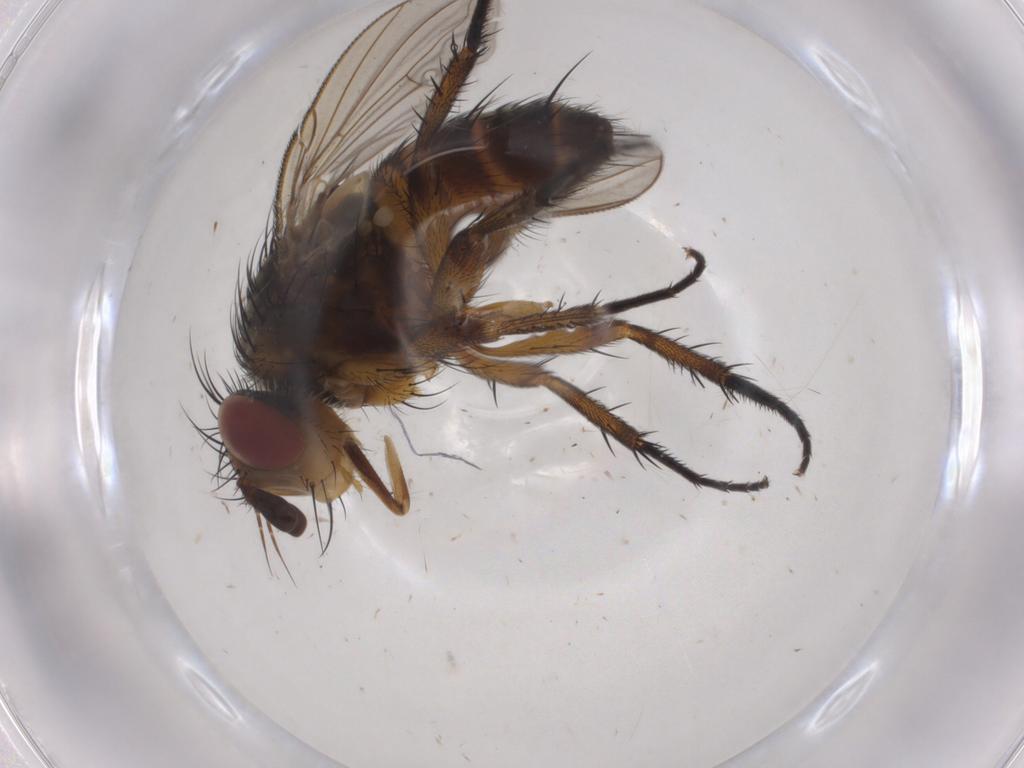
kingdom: Animalia
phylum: Arthropoda
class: Insecta
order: Diptera
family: Tachinidae
